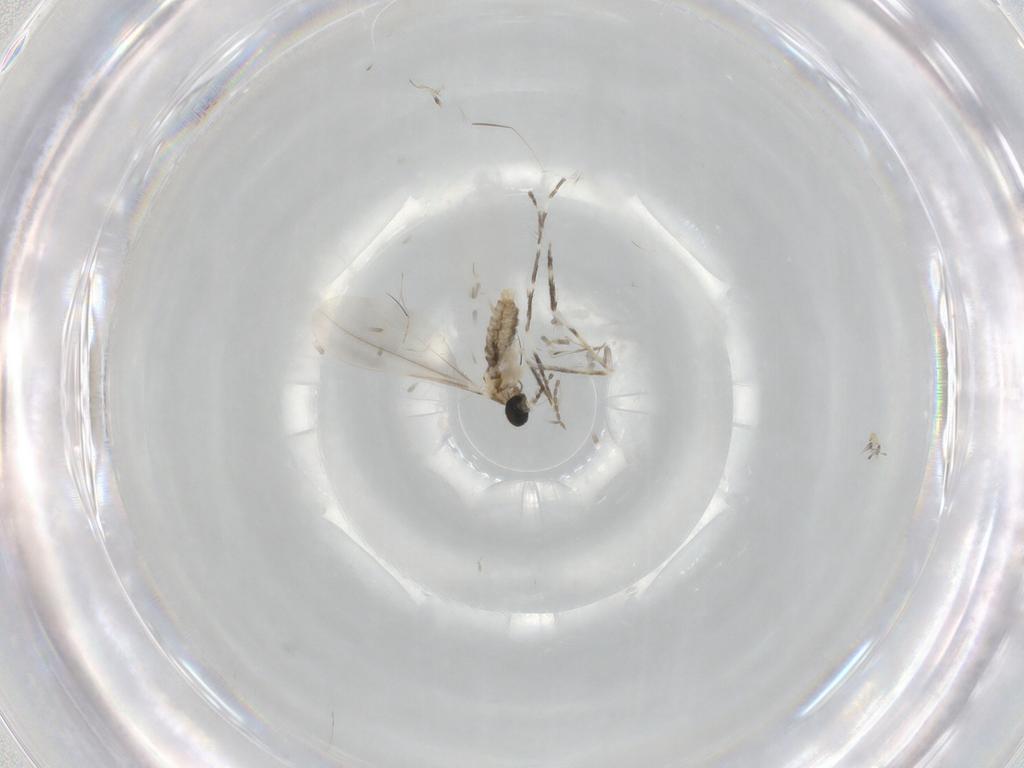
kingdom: Animalia
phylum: Arthropoda
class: Insecta
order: Diptera
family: Cecidomyiidae
